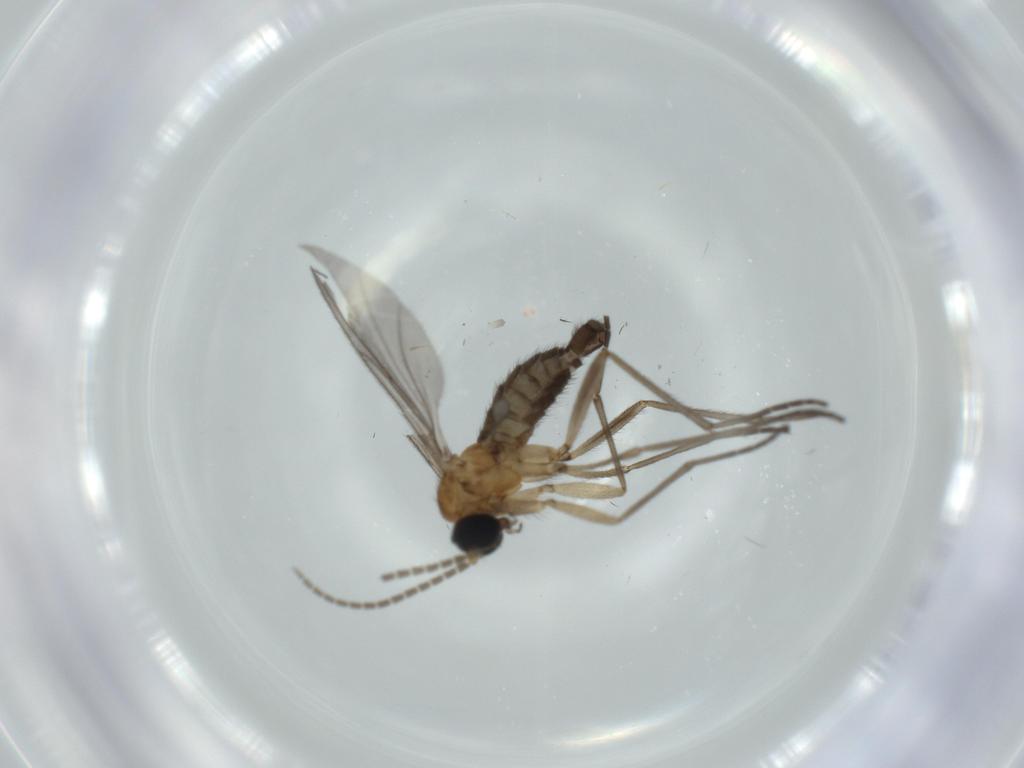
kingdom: Animalia
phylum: Arthropoda
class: Insecta
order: Diptera
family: Sciaridae
